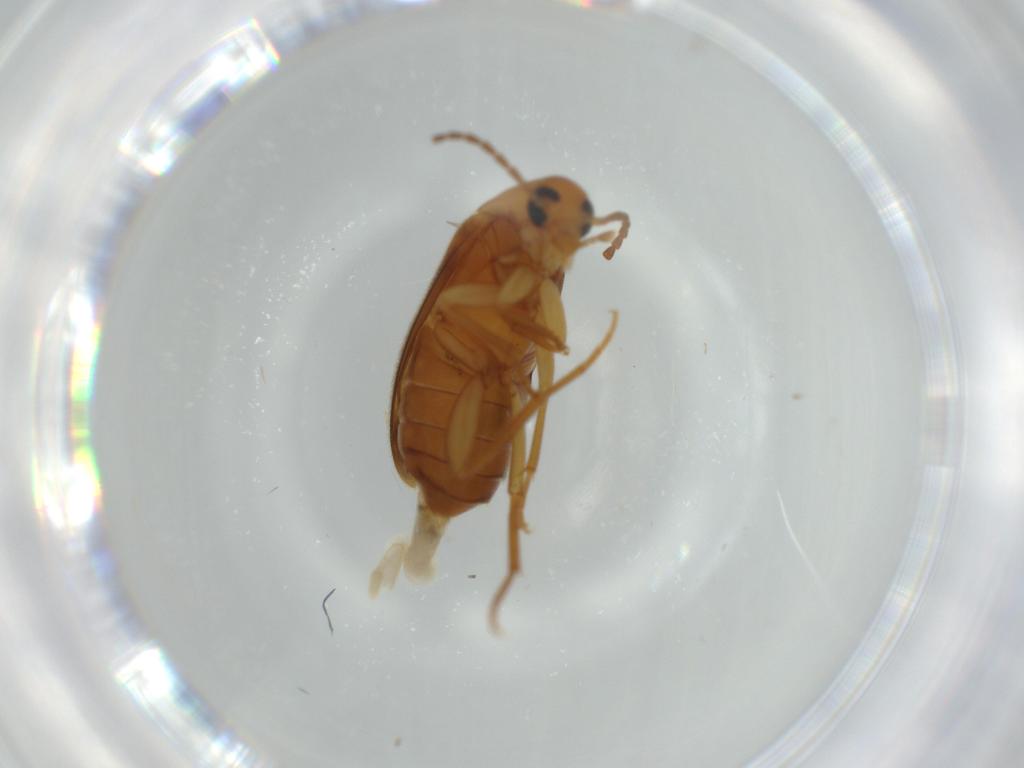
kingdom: Animalia
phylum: Arthropoda
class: Insecta
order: Coleoptera
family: Scraptiidae
